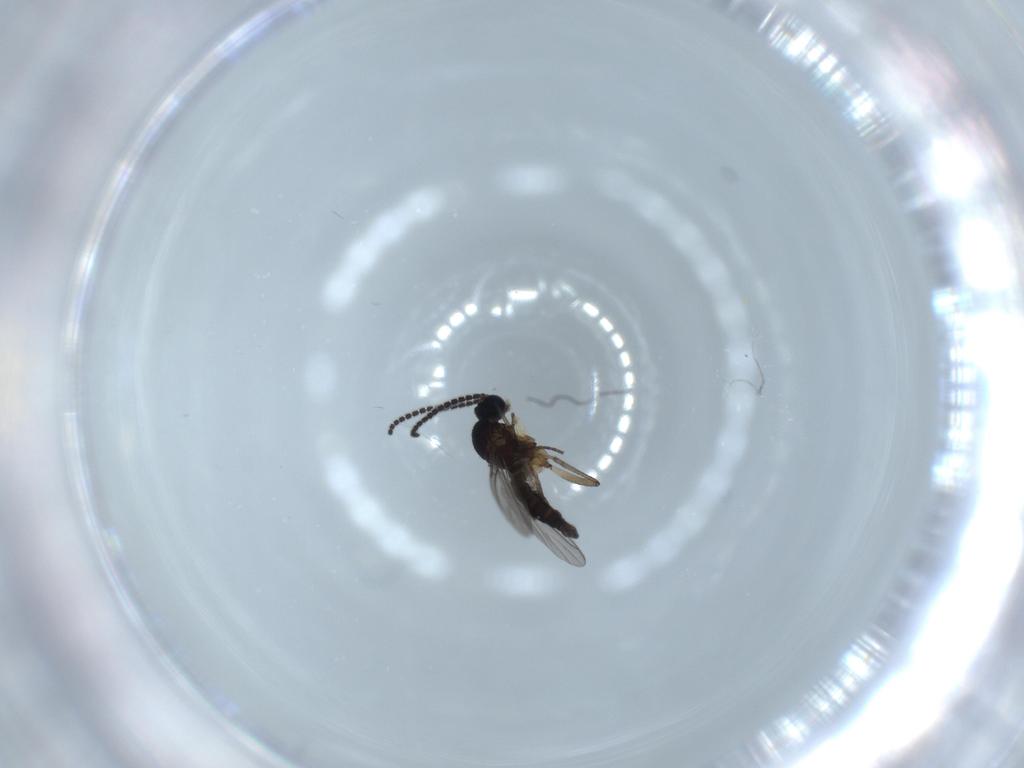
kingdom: Animalia
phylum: Arthropoda
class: Insecta
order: Diptera
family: Sciaridae
